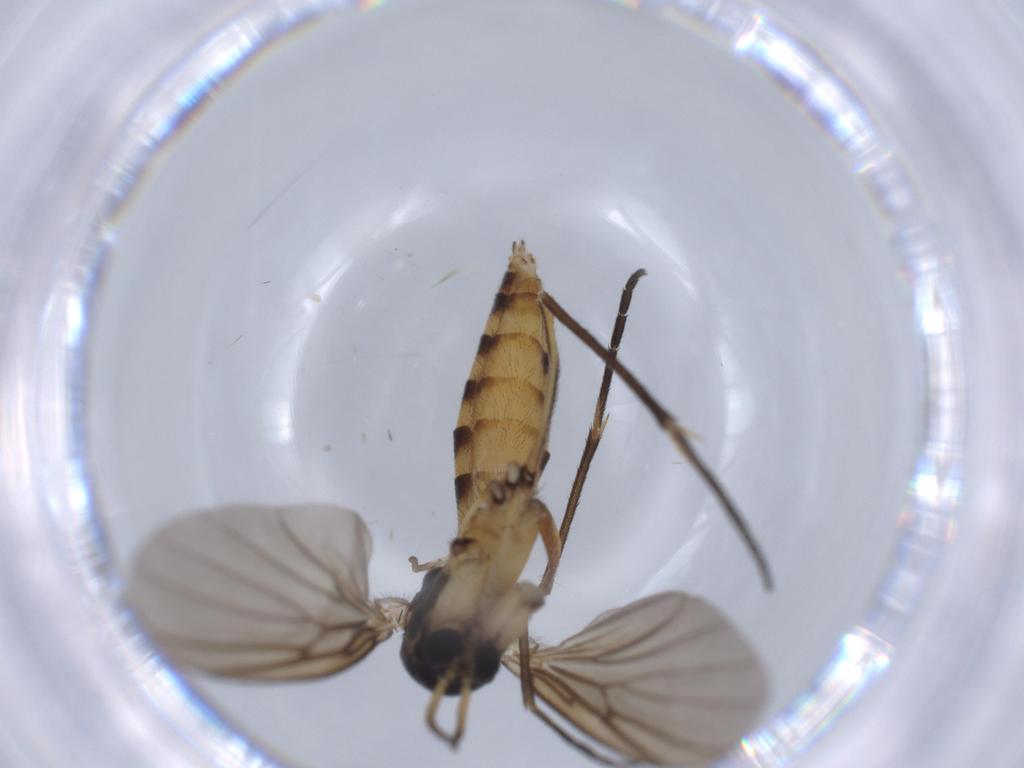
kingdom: Animalia
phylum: Arthropoda
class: Insecta
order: Diptera
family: Mycetophilidae
